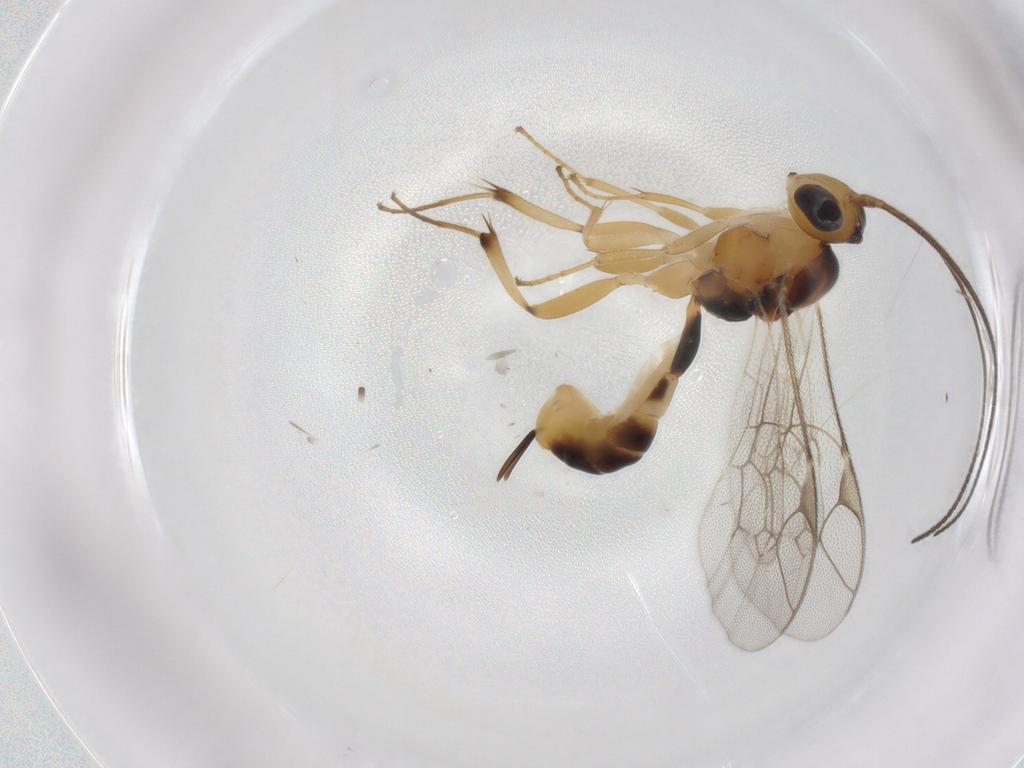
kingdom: Animalia
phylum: Arthropoda
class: Insecta
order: Hymenoptera
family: Ichneumonidae
